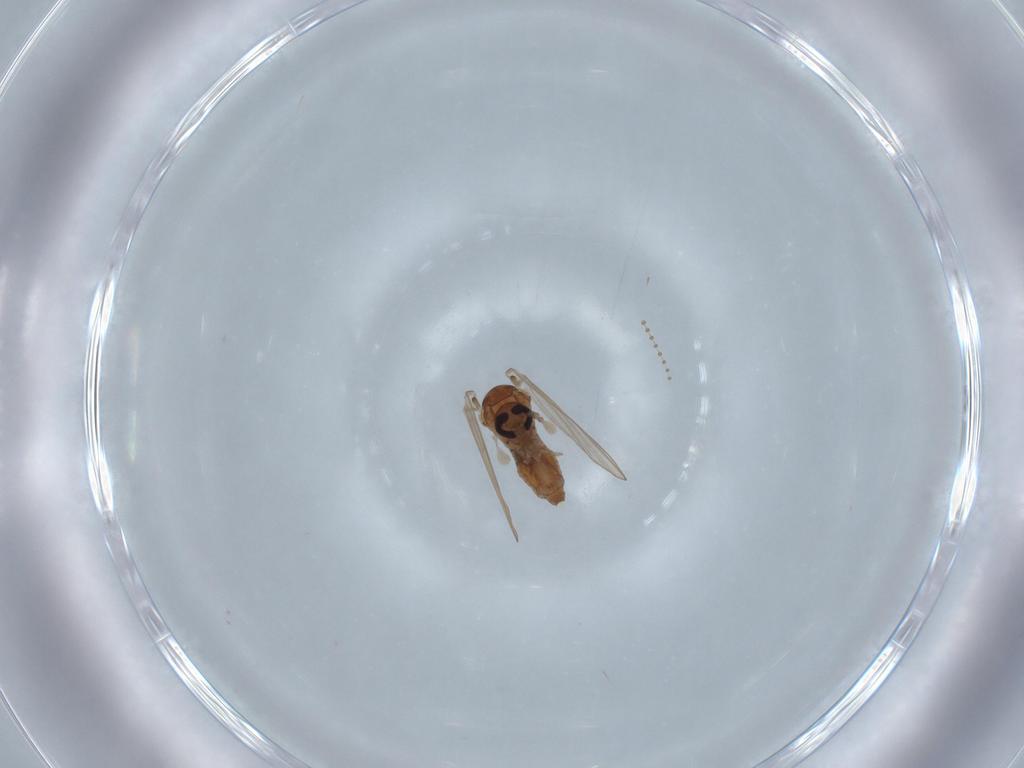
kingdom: Animalia
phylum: Arthropoda
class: Insecta
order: Diptera
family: Psychodidae
